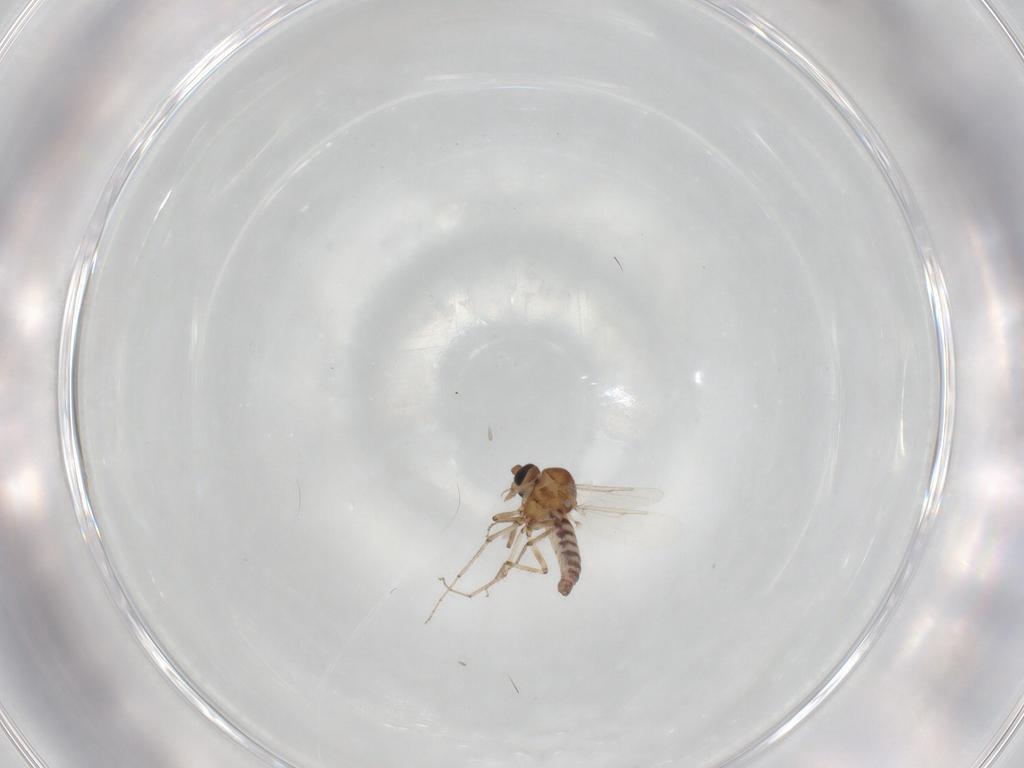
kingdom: Animalia
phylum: Arthropoda
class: Insecta
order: Diptera
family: Ceratopogonidae
